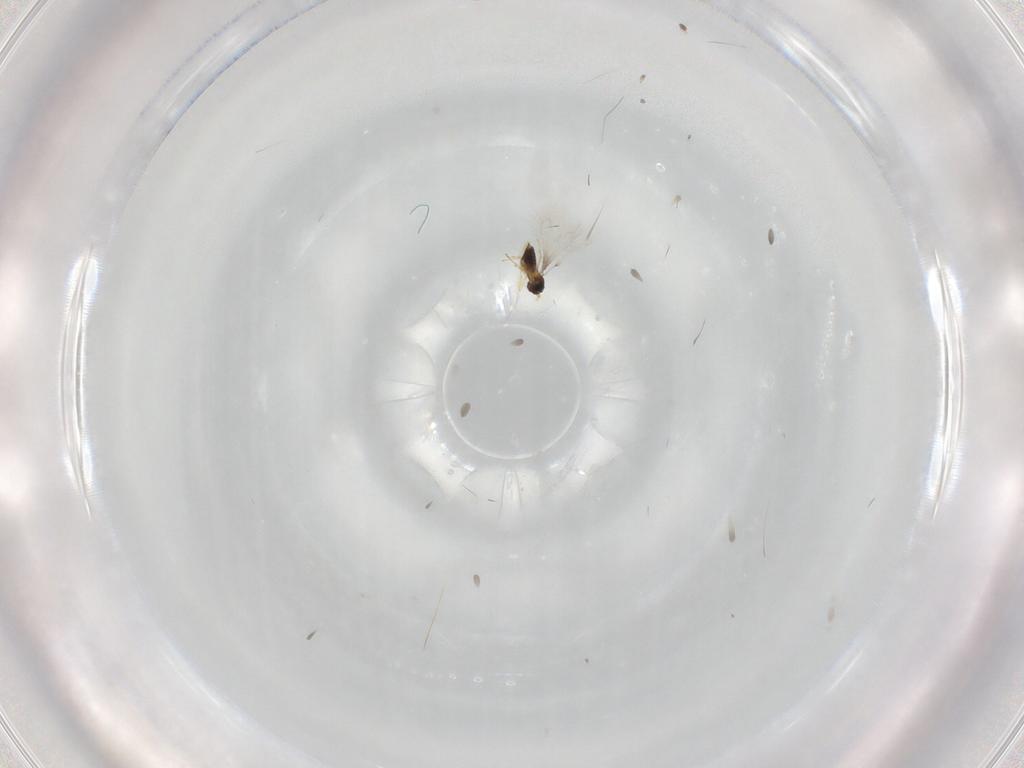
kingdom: Animalia
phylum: Arthropoda
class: Insecta
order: Hymenoptera
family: Mymaridae
